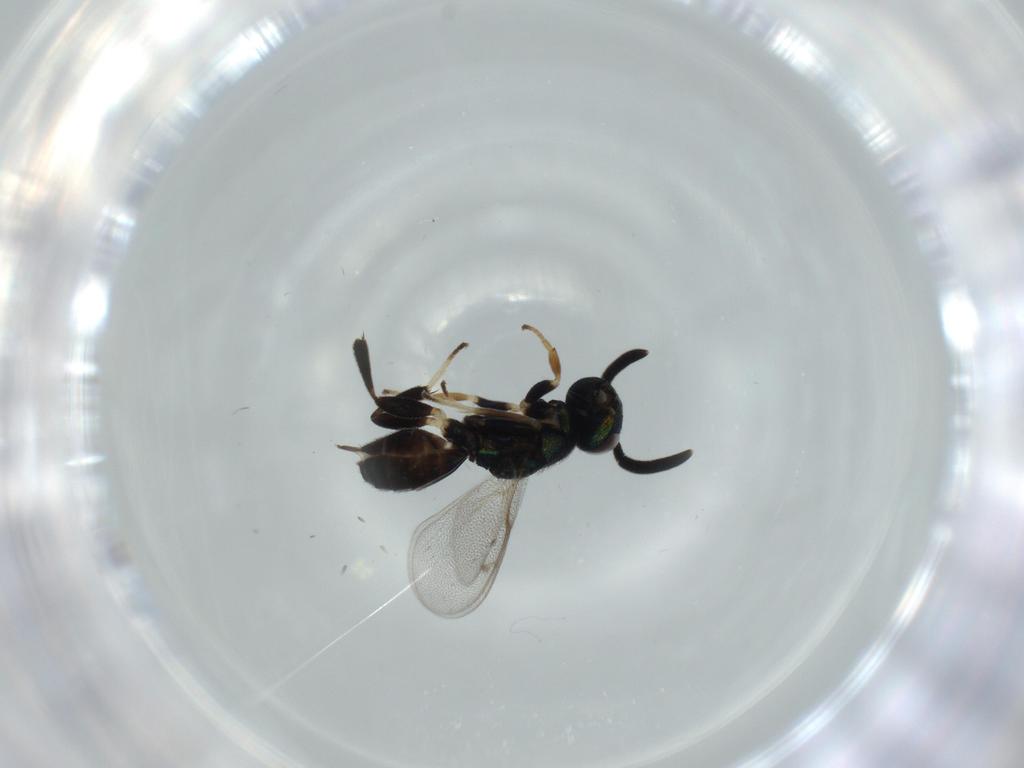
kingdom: Animalia
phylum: Arthropoda
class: Insecta
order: Hymenoptera
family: Eupelmidae
